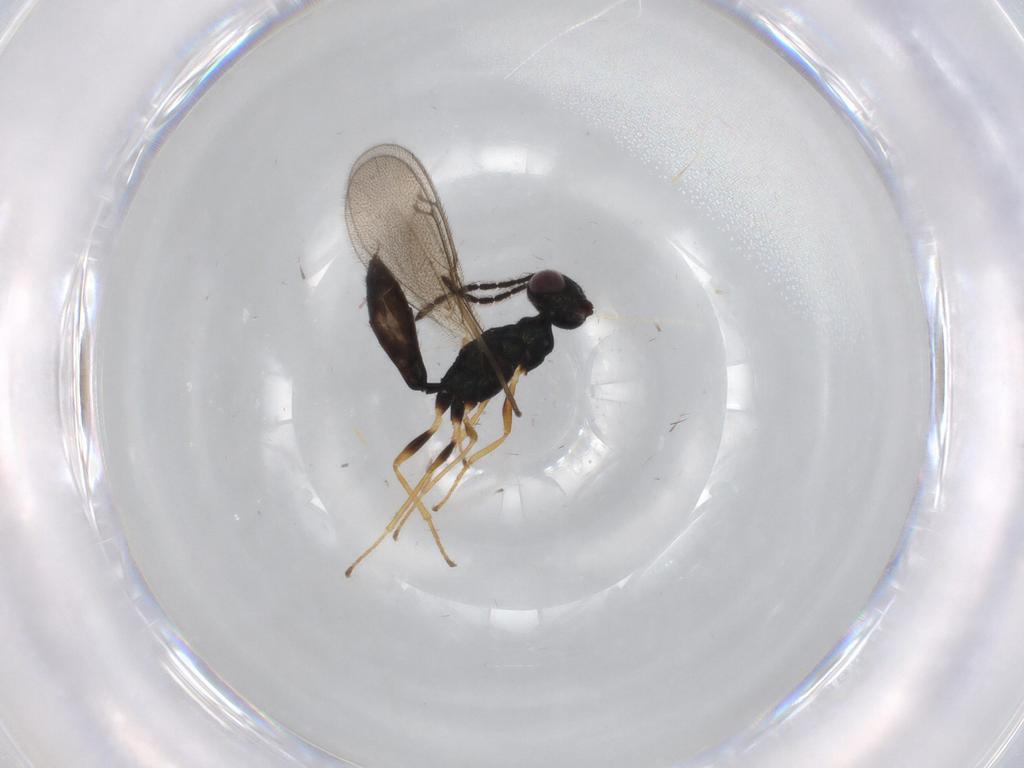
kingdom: Animalia
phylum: Arthropoda
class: Insecta
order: Hymenoptera
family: Pteromalidae
